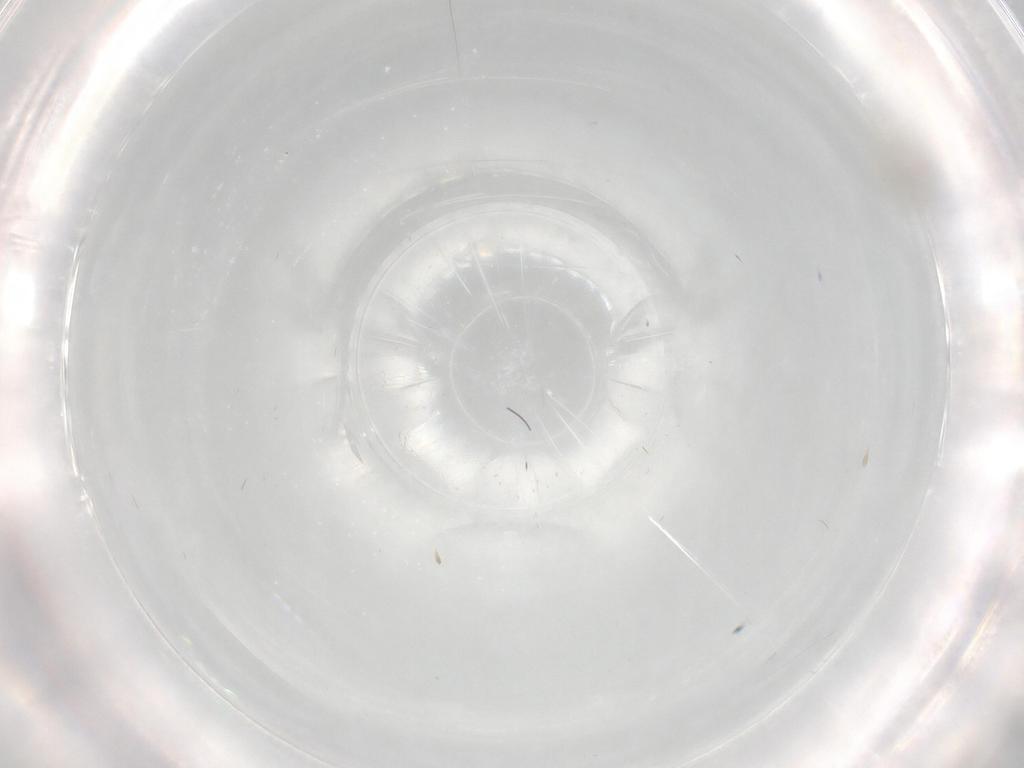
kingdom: Animalia
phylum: Arthropoda
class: Insecta
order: Diptera
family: Cecidomyiidae
